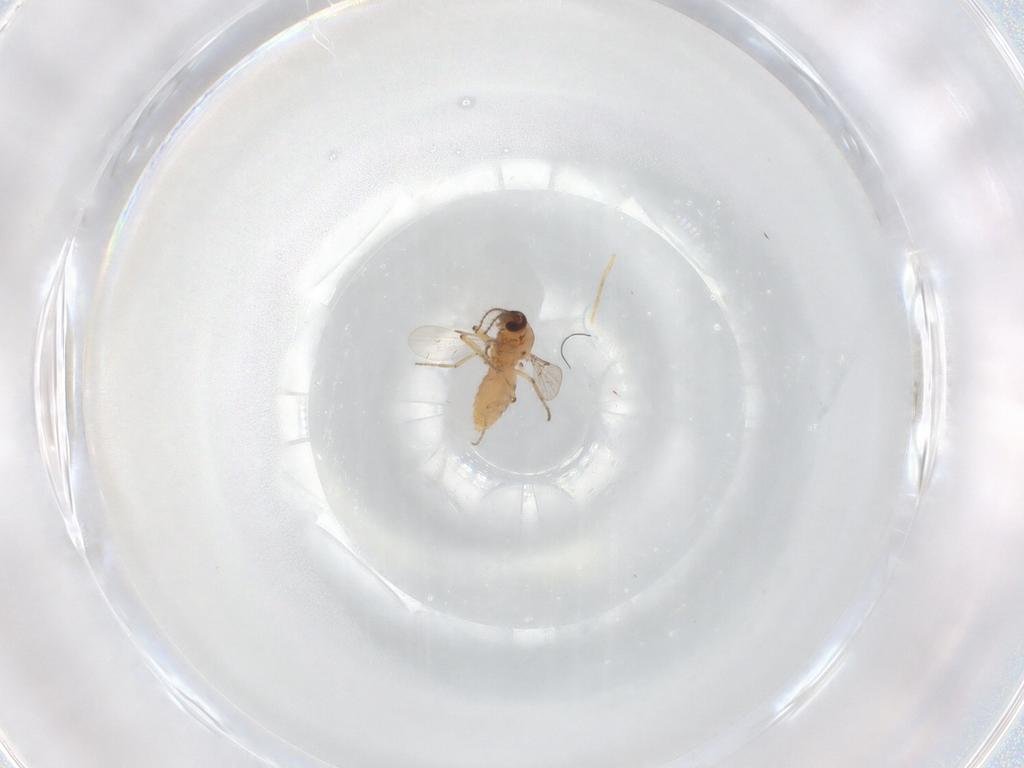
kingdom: Animalia
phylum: Arthropoda
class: Insecta
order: Diptera
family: Ceratopogonidae
